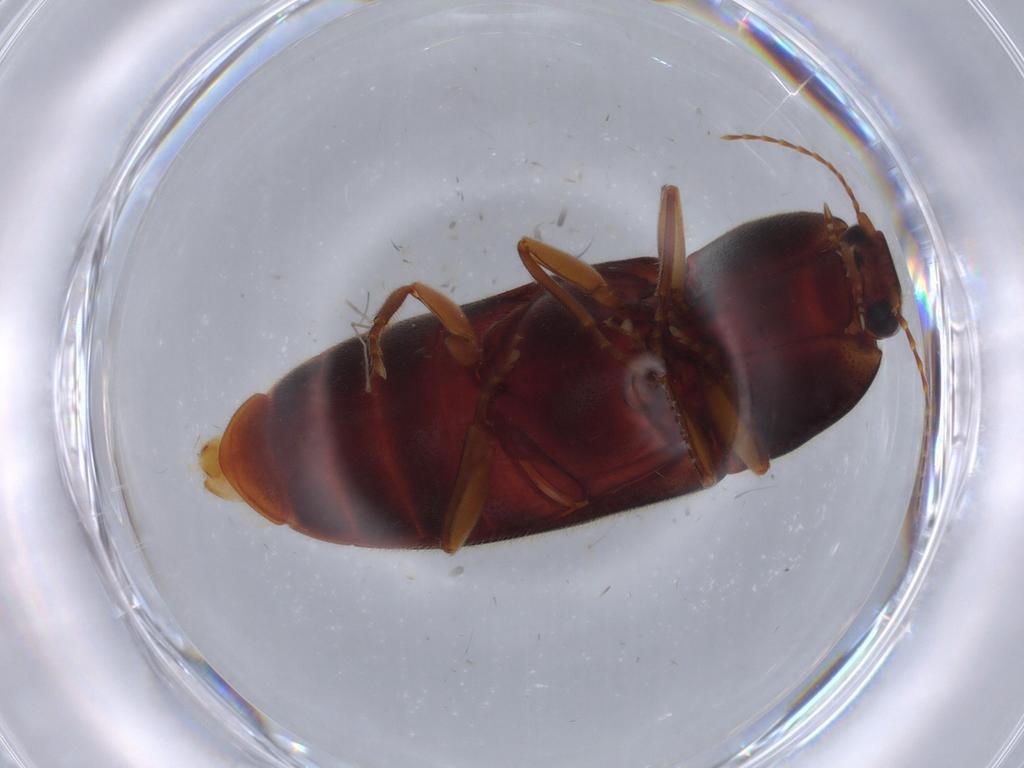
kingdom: Animalia
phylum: Arthropoda
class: Insecta
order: Coleoptera
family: Elateridae
